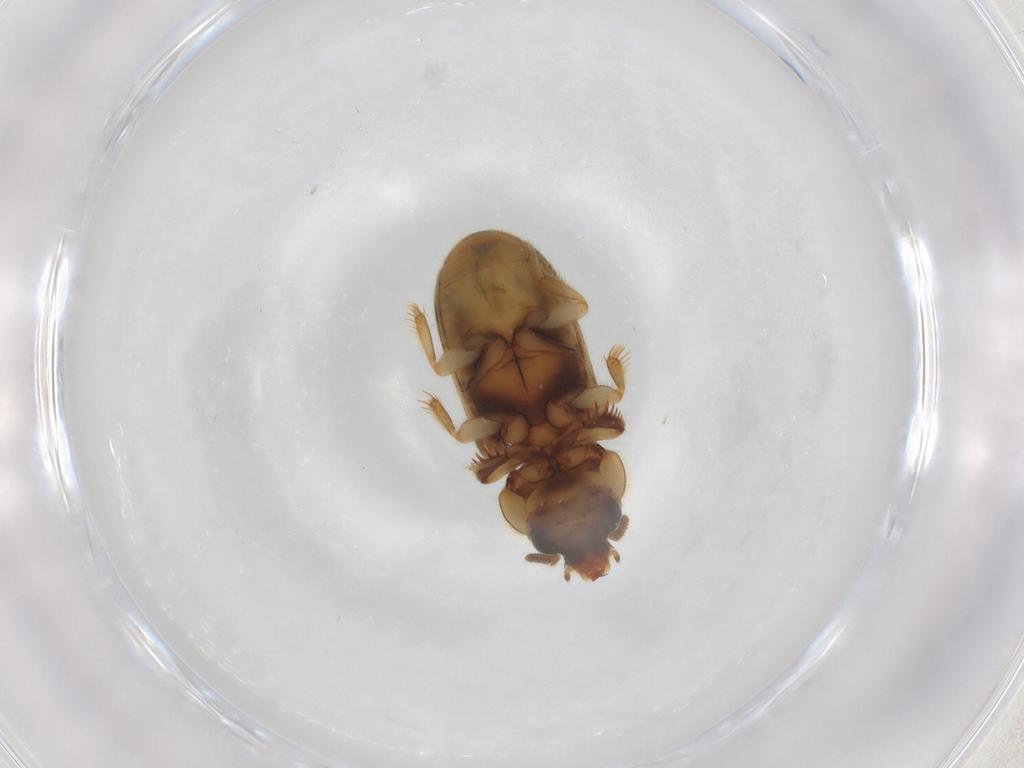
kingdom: Animalia
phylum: Arthropoda
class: Insecta
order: Coleoptera
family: Heteroceridae
